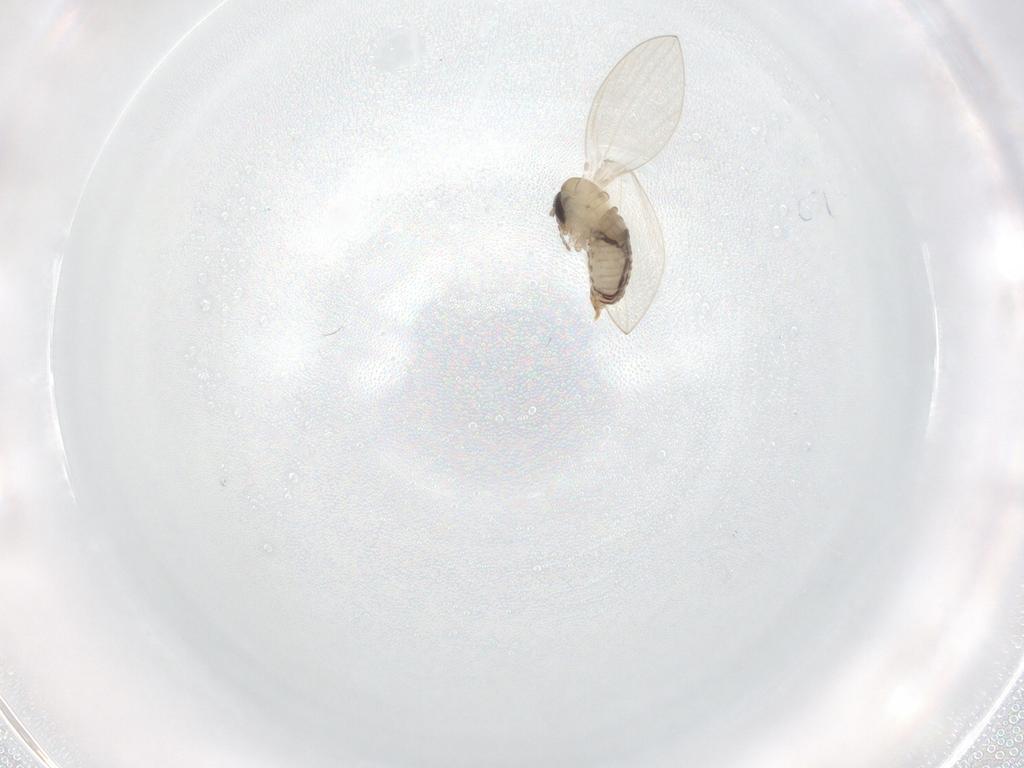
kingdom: Animalia
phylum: Arthropoda
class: Insecta
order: Diptera
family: Psychodidae
